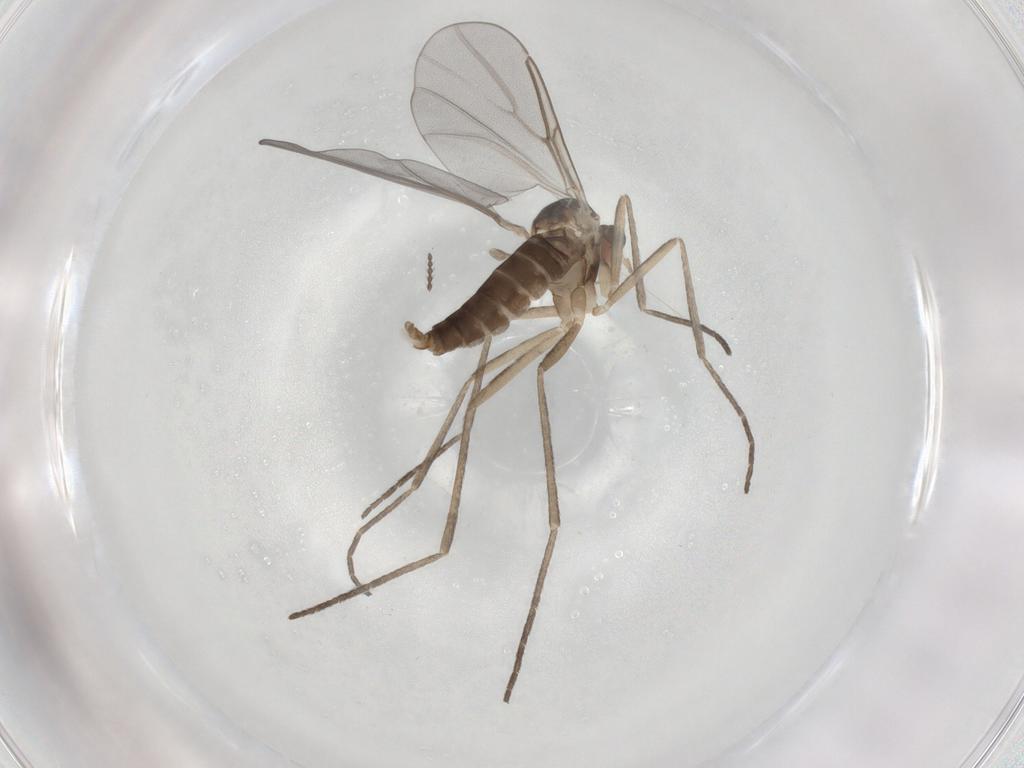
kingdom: Animalia
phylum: Arthropoda
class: Insecta
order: Diptera
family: Cecidomyiidae
